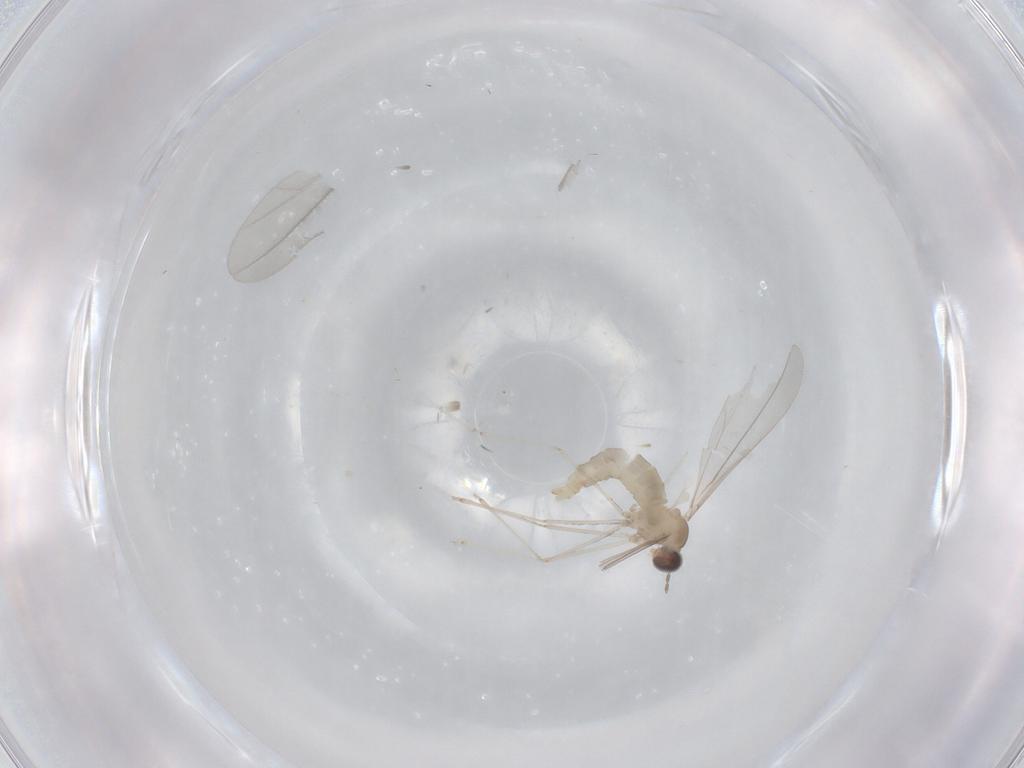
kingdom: Animalia
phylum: Arthropoda
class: Insecta
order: Diptera
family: Cecidomyiidae
